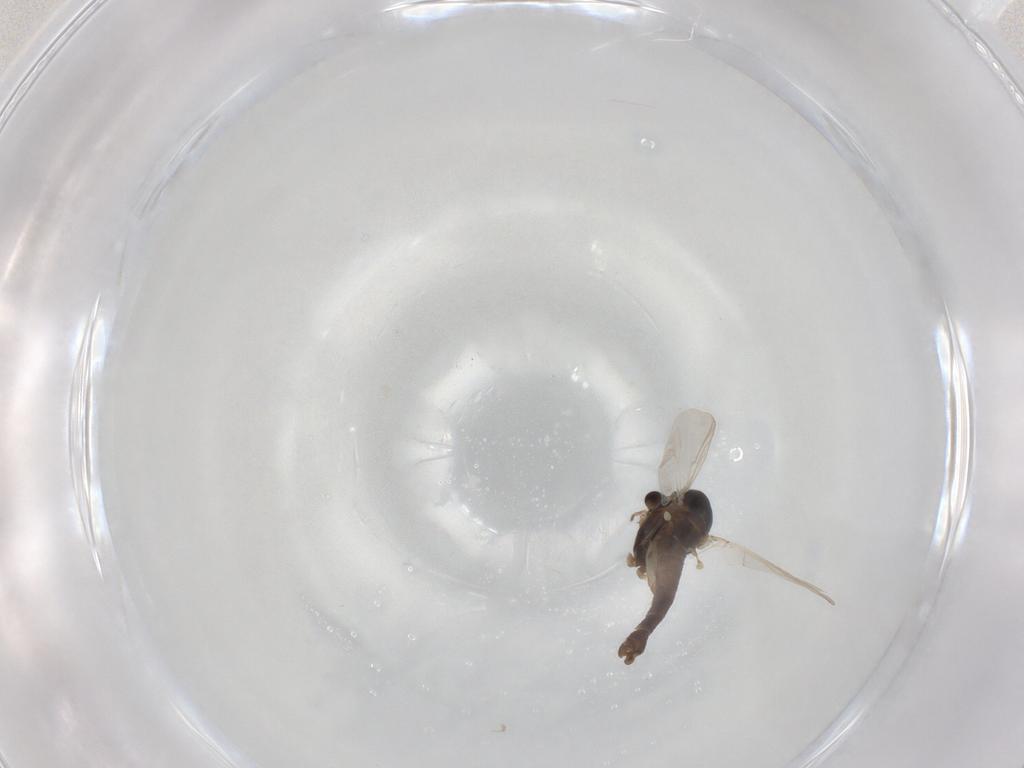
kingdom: Animalia
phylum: Arthropoda
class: Insecta
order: Diptera
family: Chironomidae
